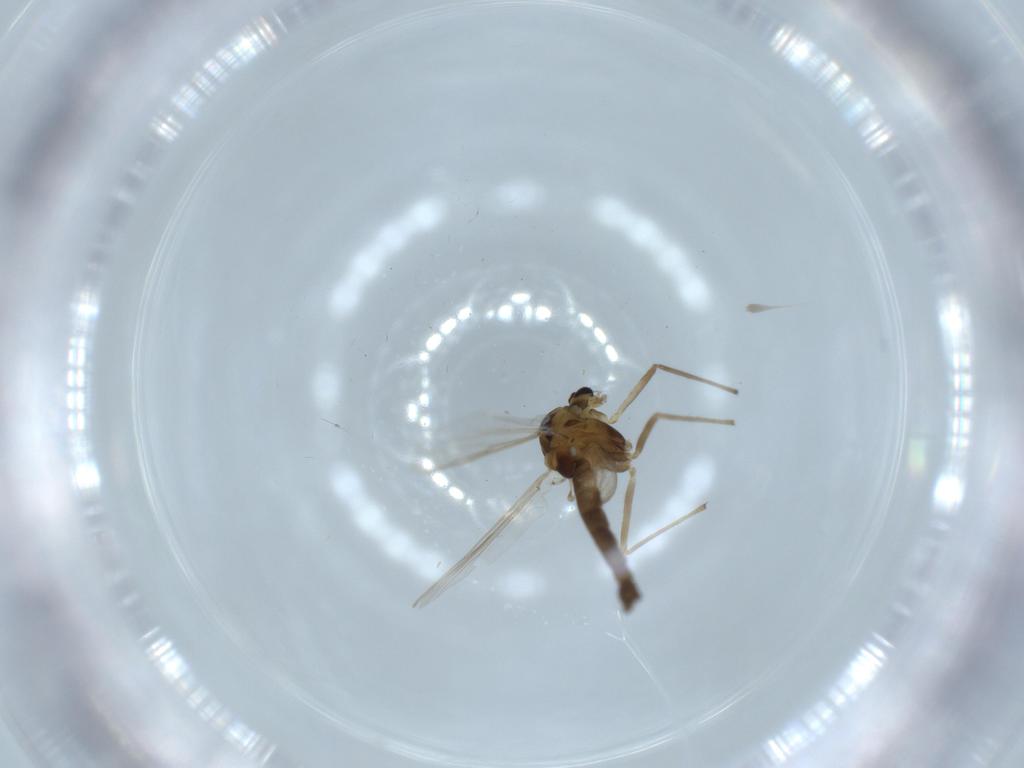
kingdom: Animalia
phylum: Arthropoda
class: Insecta
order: Diptera
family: Chironomidae
